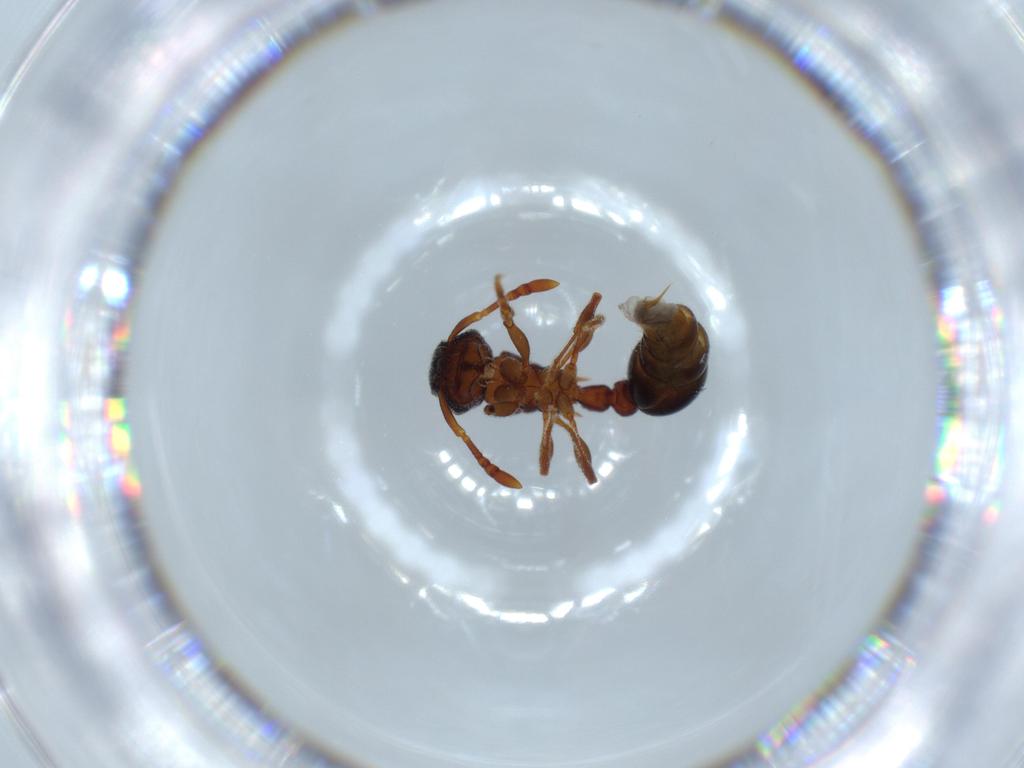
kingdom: Animalia
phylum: Arthropoda
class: Insecta
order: Hymenoptera
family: Formicidae
